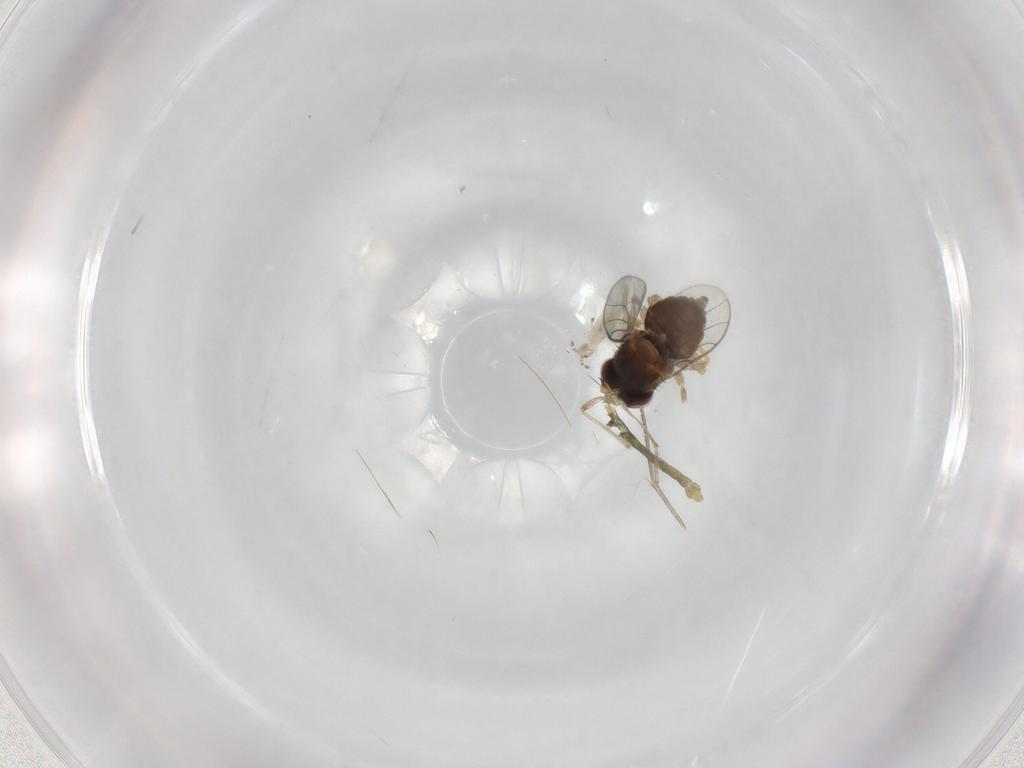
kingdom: Animalia
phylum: Arthropoda
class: Insecta
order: Diptera
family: Chloropidae
